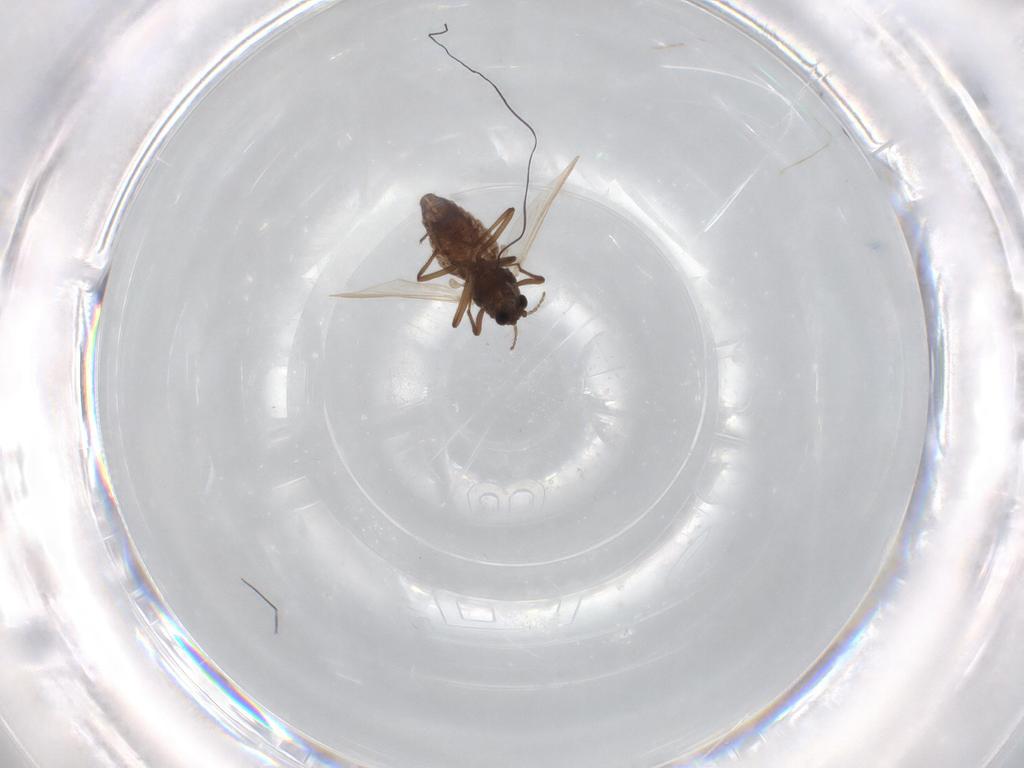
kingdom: Animalia
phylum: Arthropoda
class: Insecta
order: Diptera
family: Chironomidae
